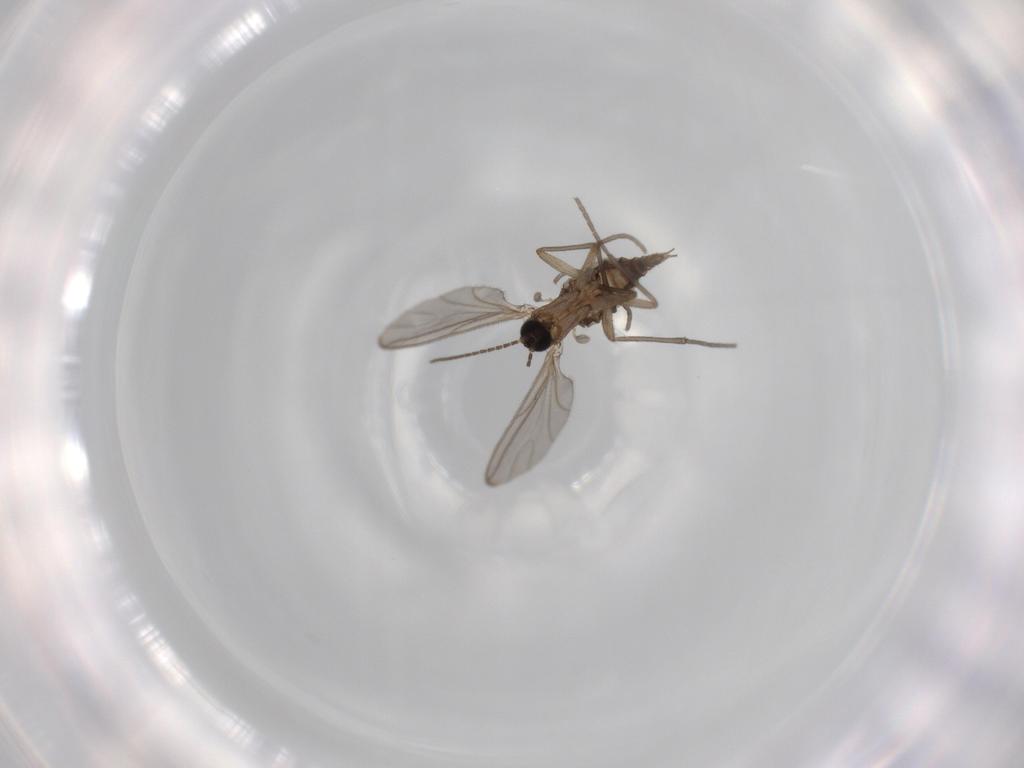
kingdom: Animalia
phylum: Arthropoda
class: Insecta
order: Diptera
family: Sciaridae
